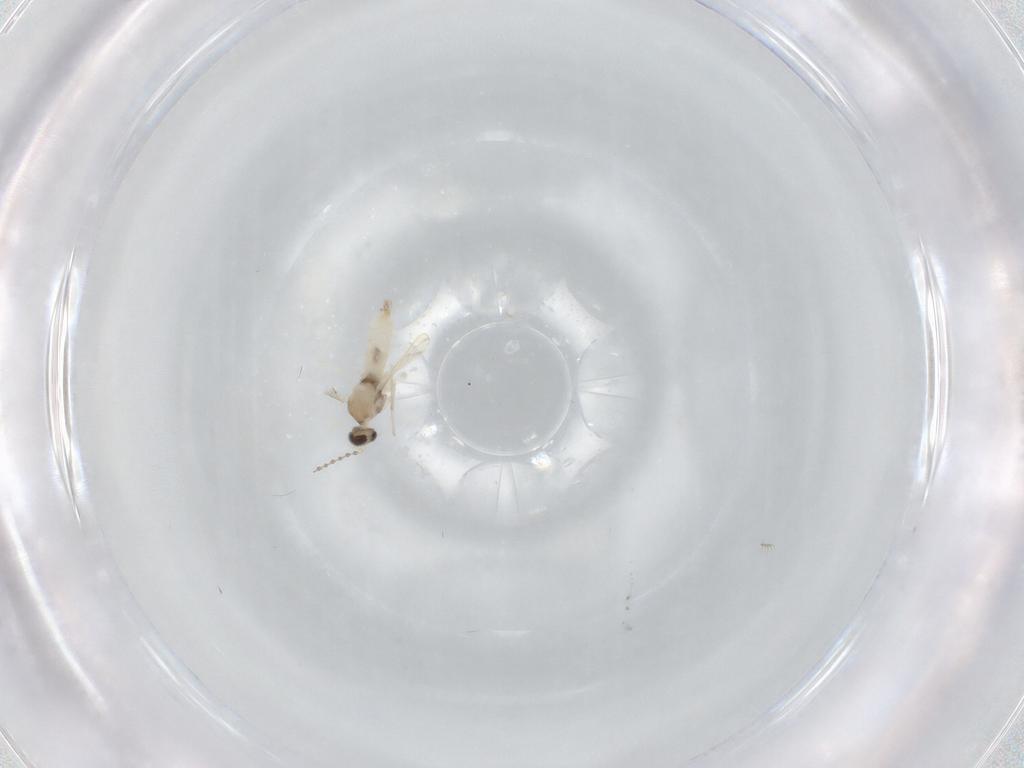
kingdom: Animalia
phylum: Arthropoda
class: Insecta
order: Diptera
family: Cecidomyiidae
